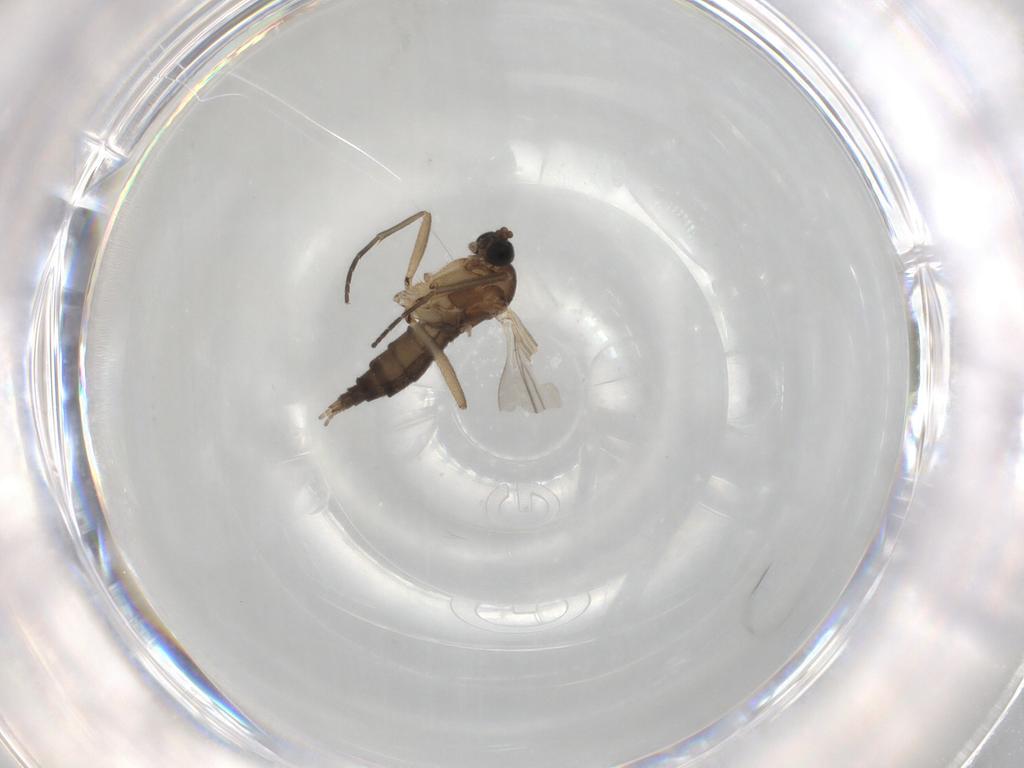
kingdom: Animalia
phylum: Arthropoda
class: Insecta
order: Diptera
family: Sciaridae
